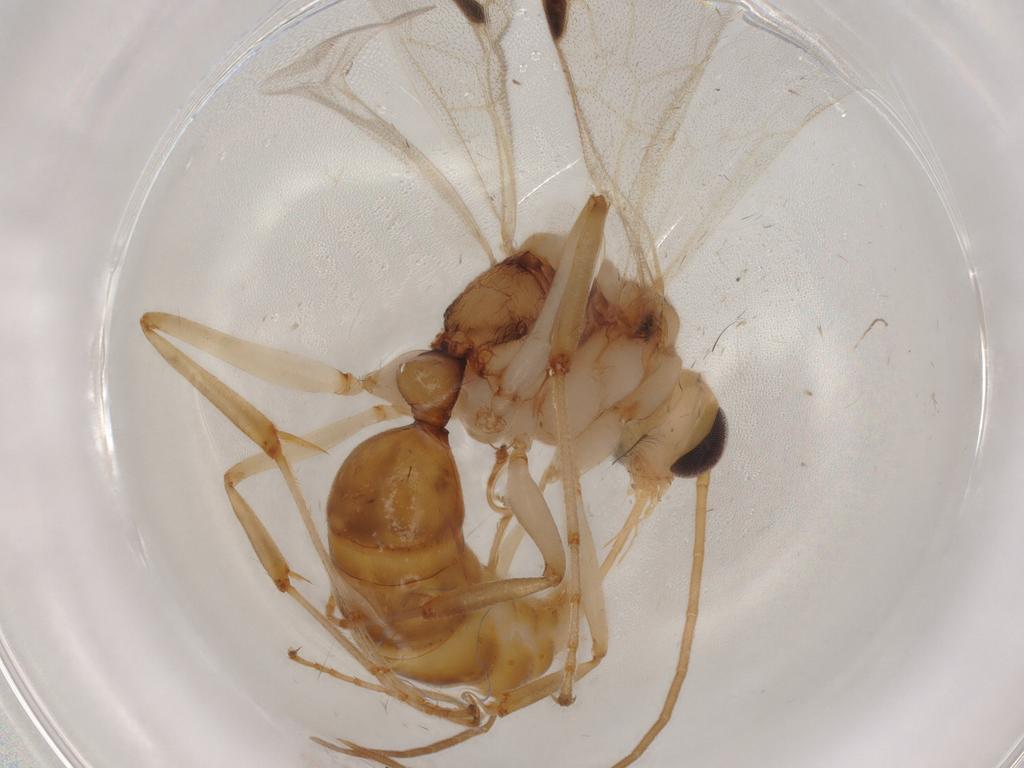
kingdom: Animalia
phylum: Arthropoda
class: Insecta
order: Hymenoptera
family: Formicidae
